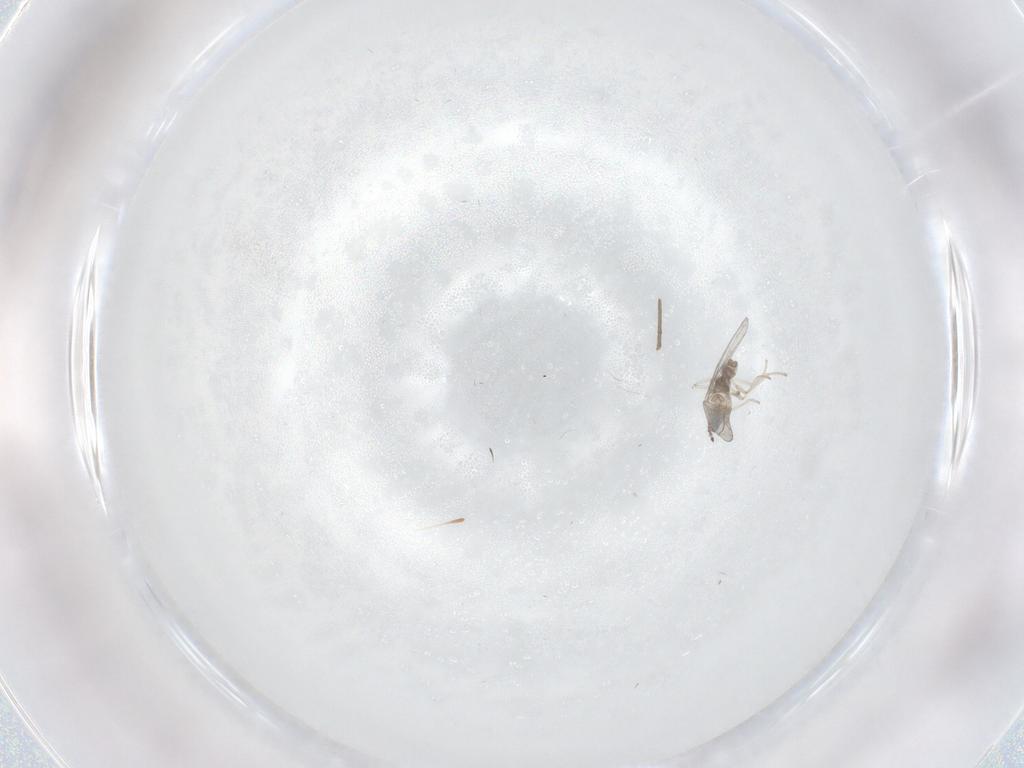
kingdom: Animalia
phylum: Arthropoda
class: Insecta
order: Diptera
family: Cecidomyiidae
